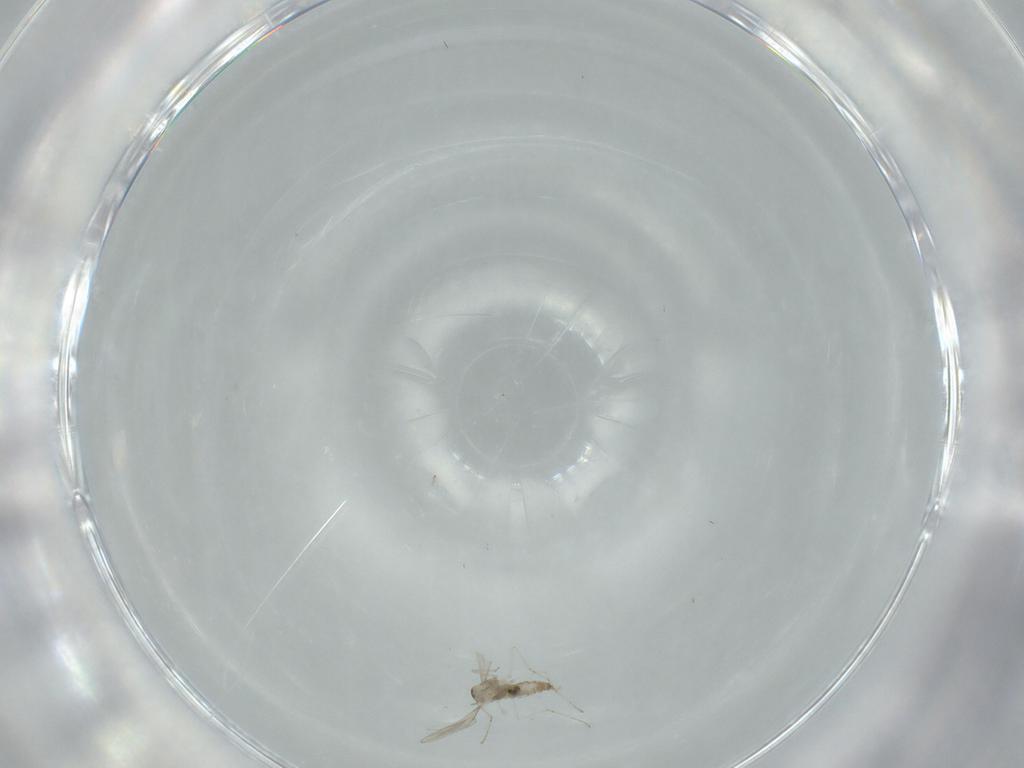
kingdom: Animalia
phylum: Arthropoda
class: Insecta
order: Diptera
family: Cecidomyiidae
